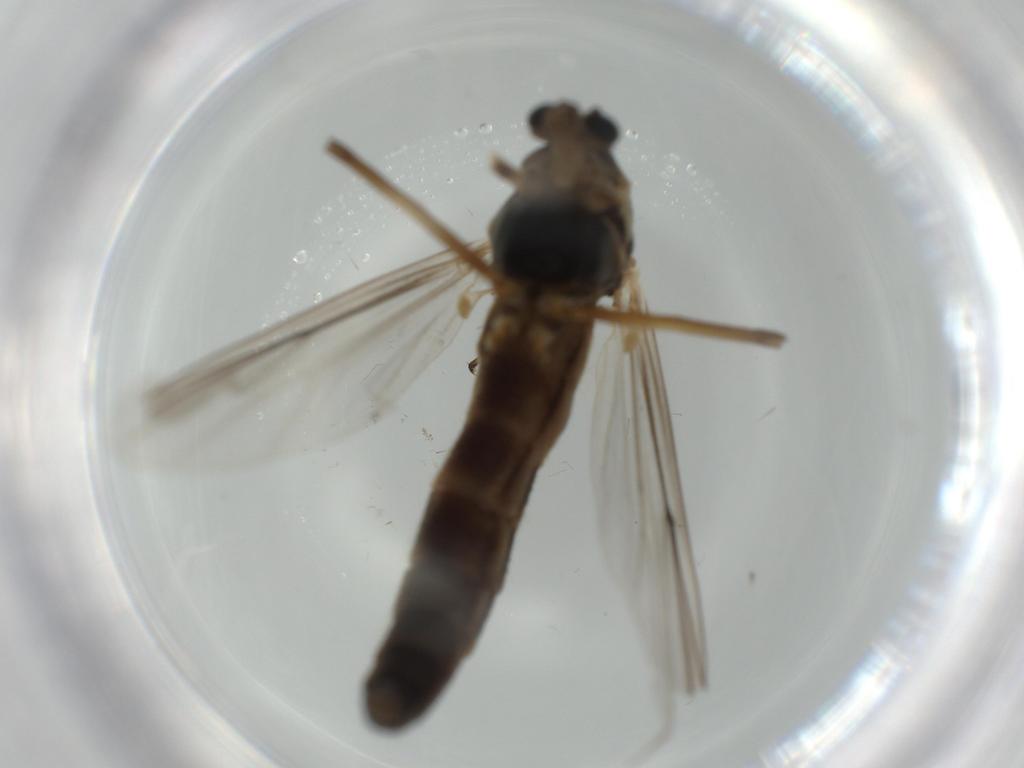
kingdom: Animalia
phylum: Arthropoda
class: Insecta
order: Diptera
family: Chironomidae
